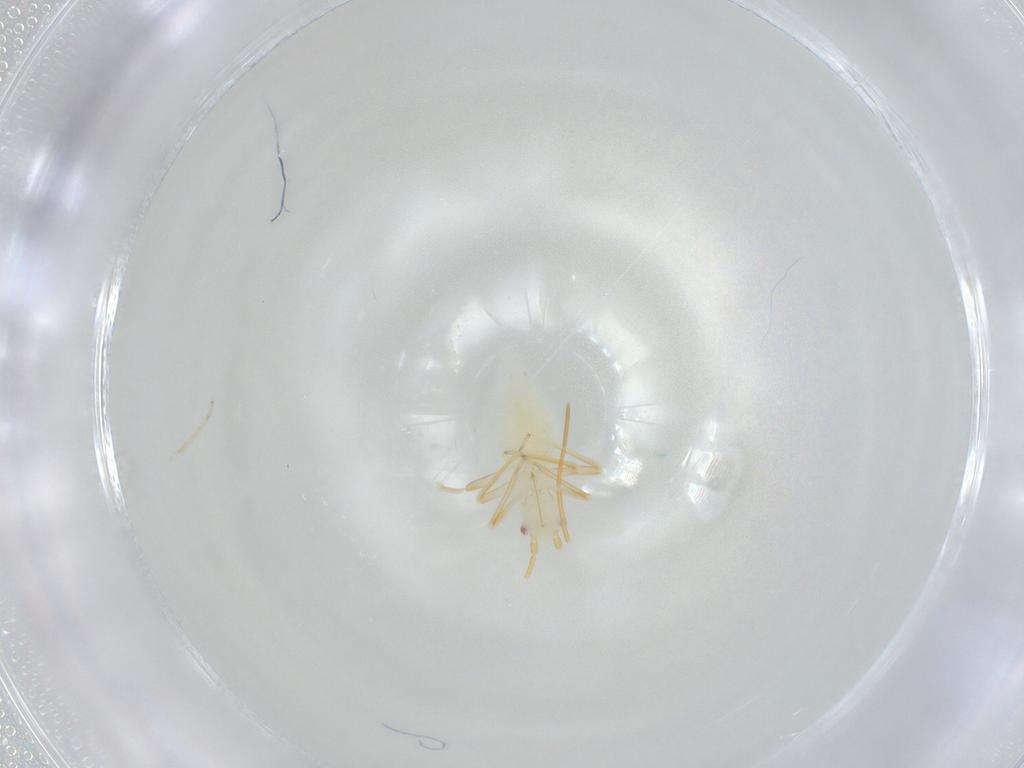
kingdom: Animalia
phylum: Arthropoda
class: Insecta
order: Hemiptera
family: Miridae
